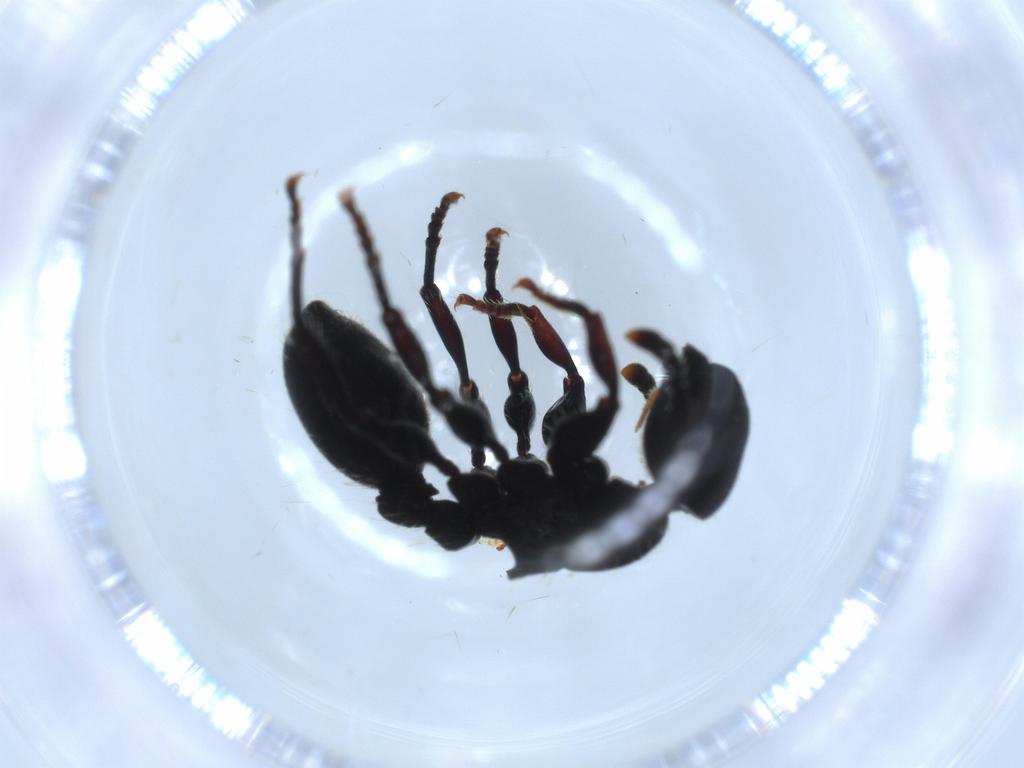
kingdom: Animalia
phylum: Arthropoda
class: Insecta
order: Hymenoptera
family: Formicidae
